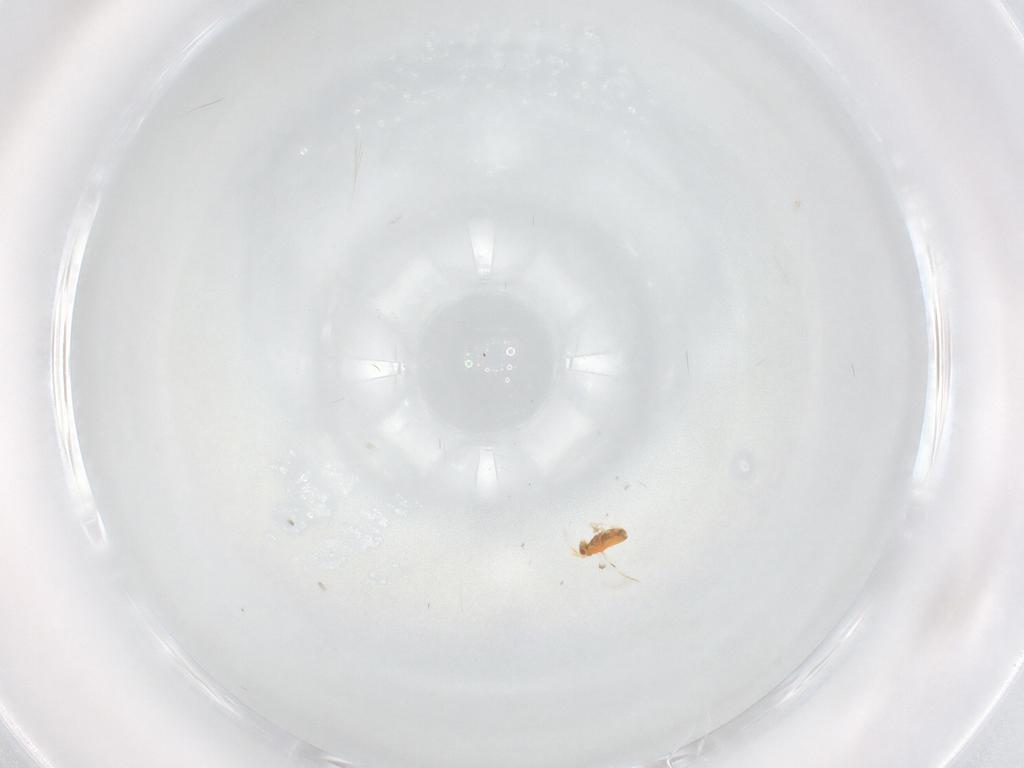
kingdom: Animalia
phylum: Arthropoda
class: Insecta
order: Hymenoptera
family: Trichogrammatidae
